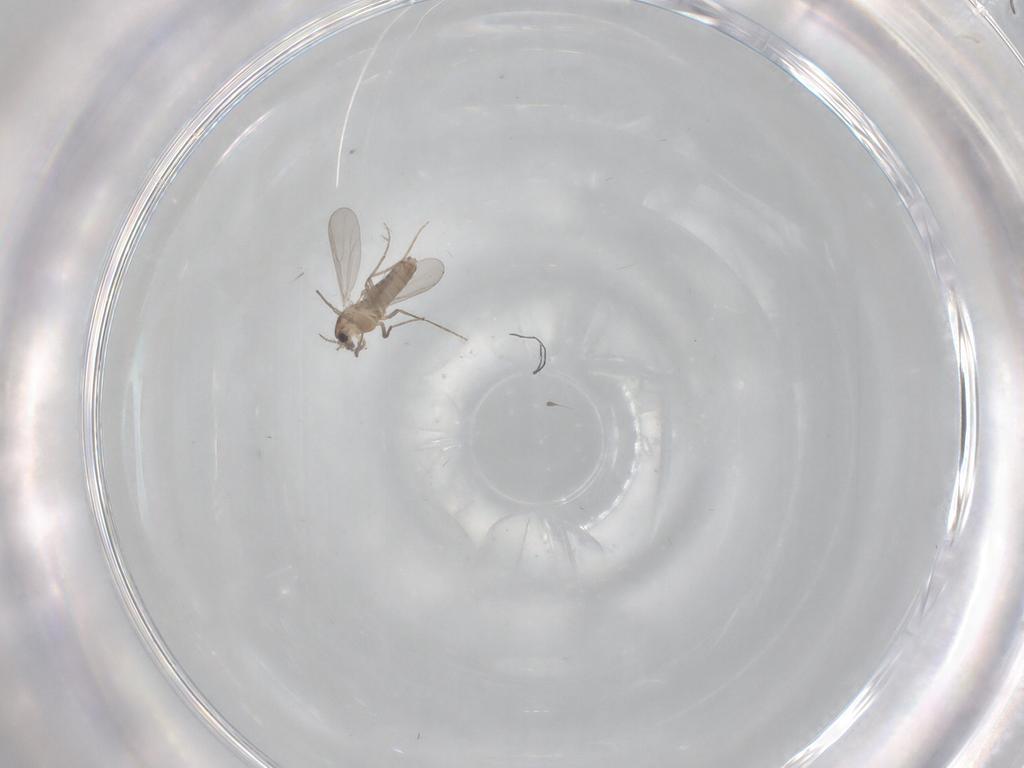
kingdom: Animalia
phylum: Arthropoda
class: Insecta
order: Diptera
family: Chironomidae
